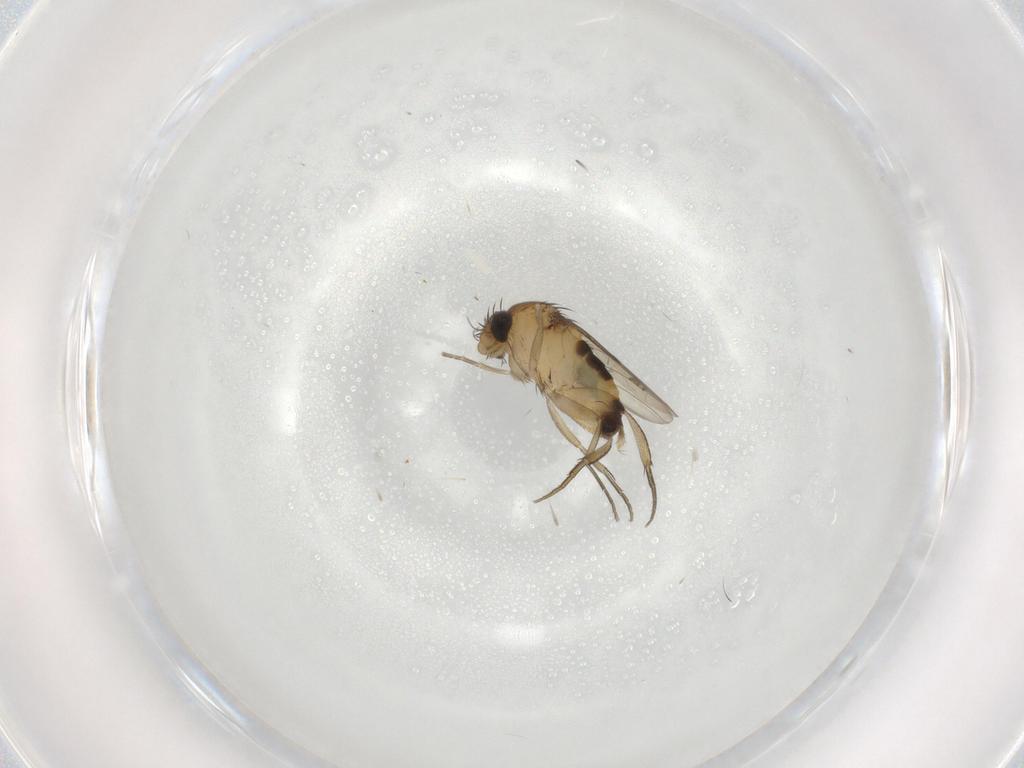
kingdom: Animalia
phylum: Arthropoda
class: Insecta
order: Diptera
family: Phoridae
